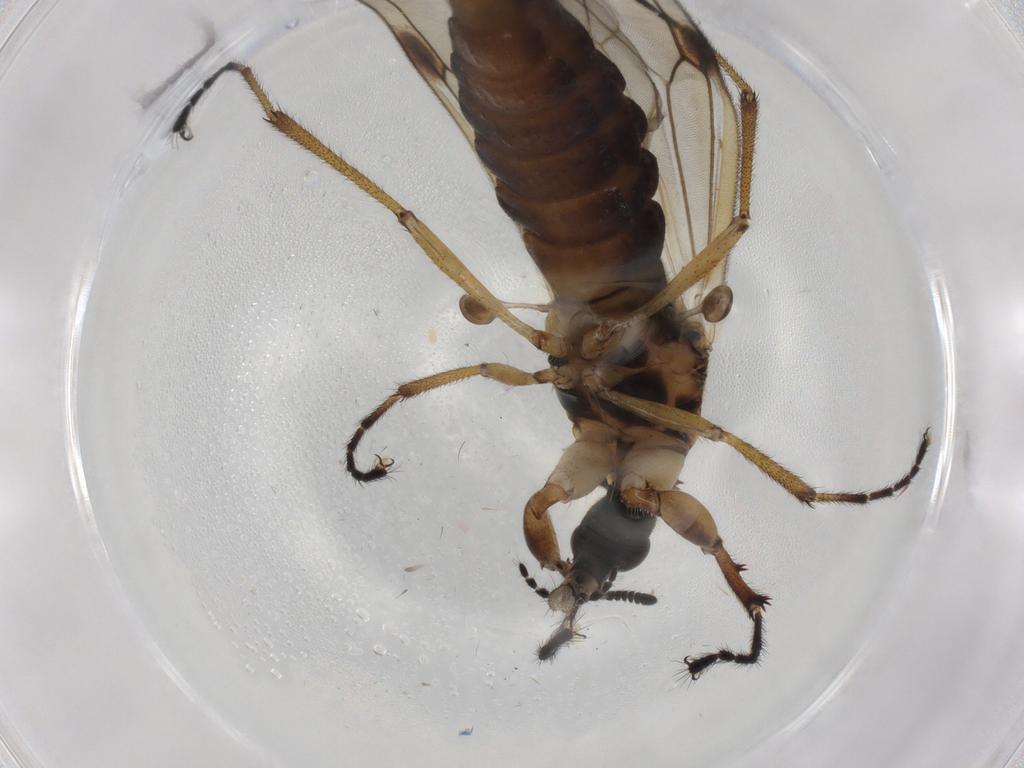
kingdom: Animalia
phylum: Arthropoda
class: Insecta
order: Diptera
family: Bibionidae
